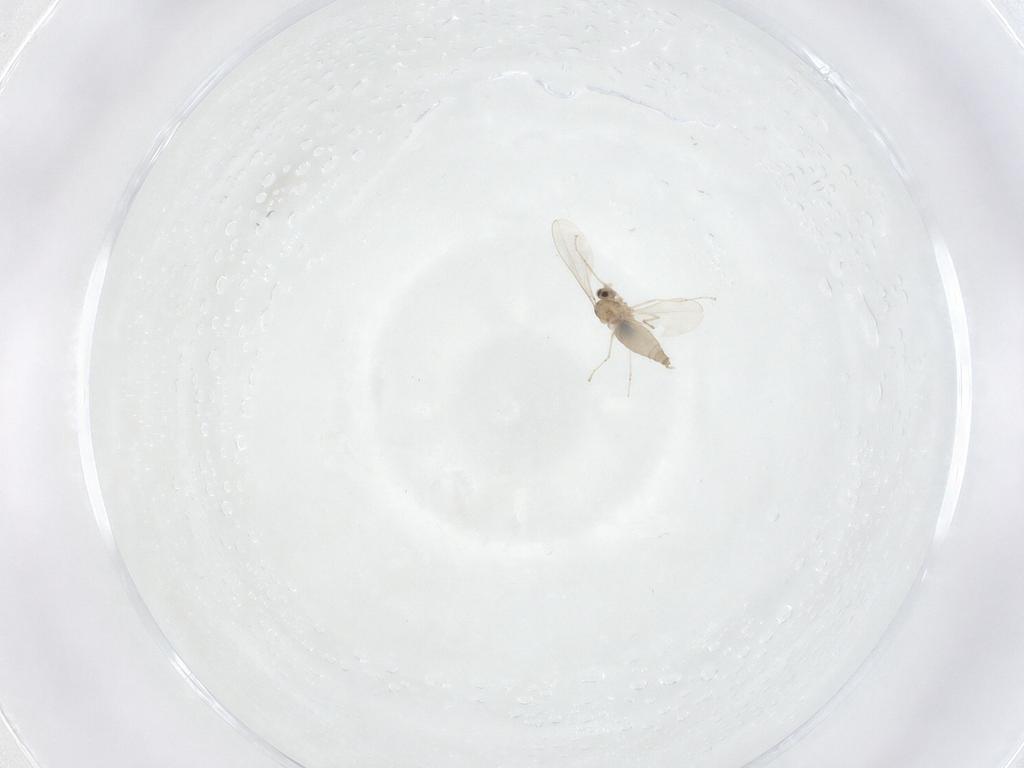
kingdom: Animalia
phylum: Arthropoda
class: Insecta
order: Diptera
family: Cecidomyiidae
